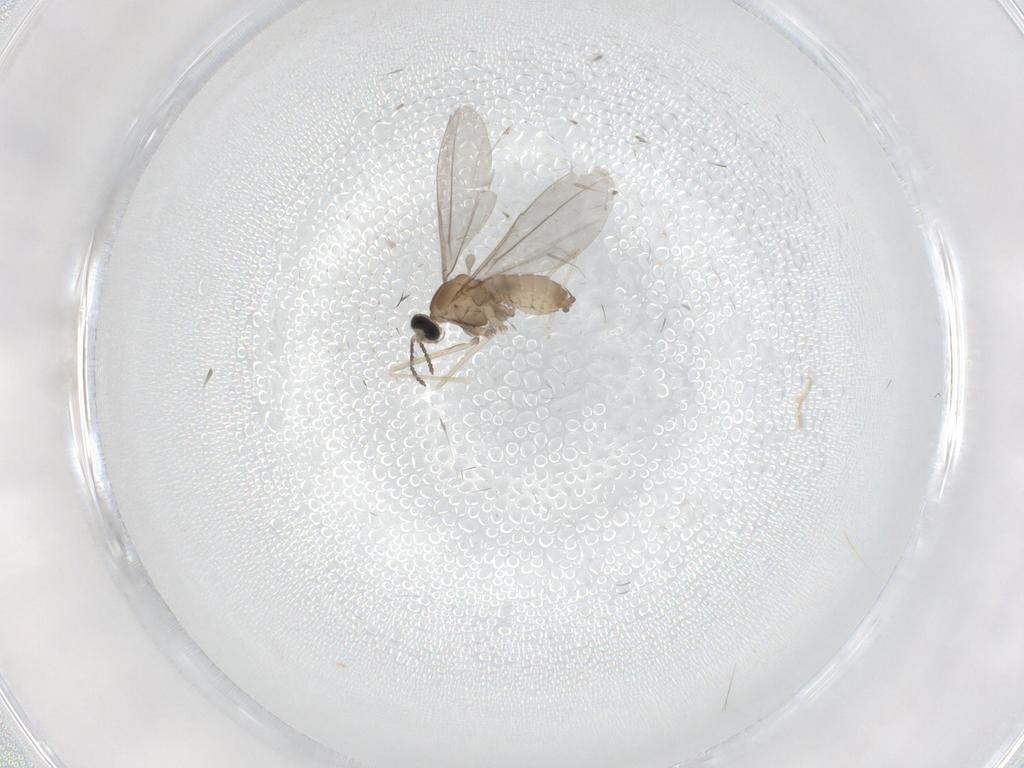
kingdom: Animalia
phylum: Arthropoda
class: Insecta
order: Diptera
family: Cecidomyiidae
